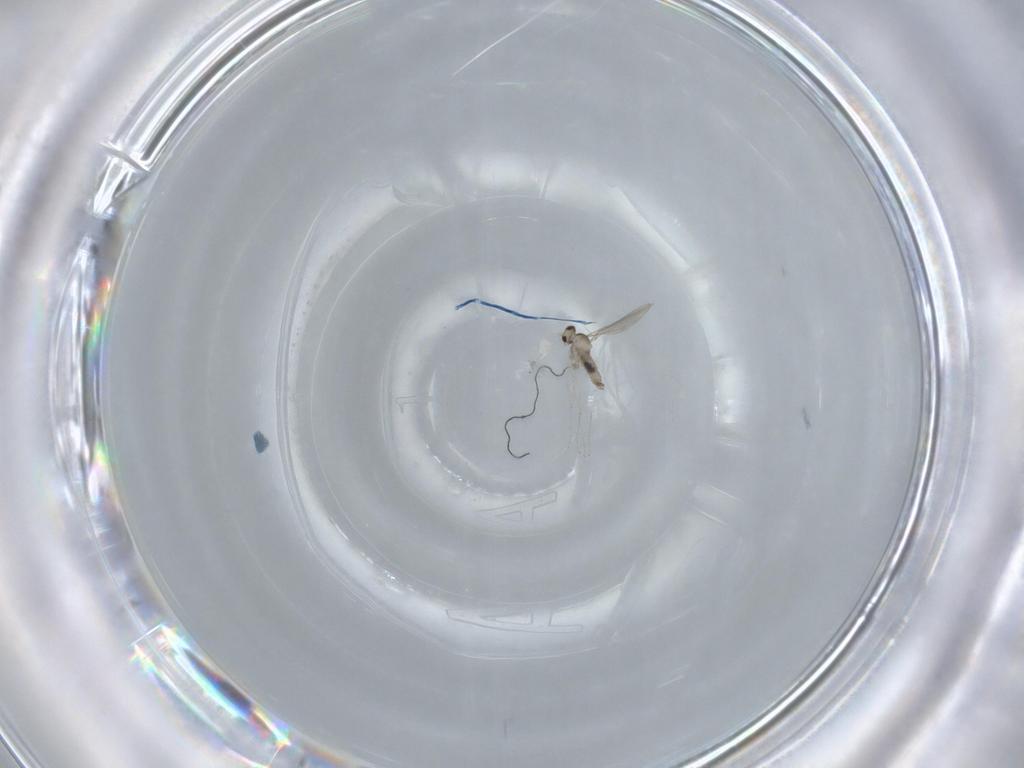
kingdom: Animalia
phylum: Arthropoda
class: Insecta
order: Diptera
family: Cecidomyiidae
